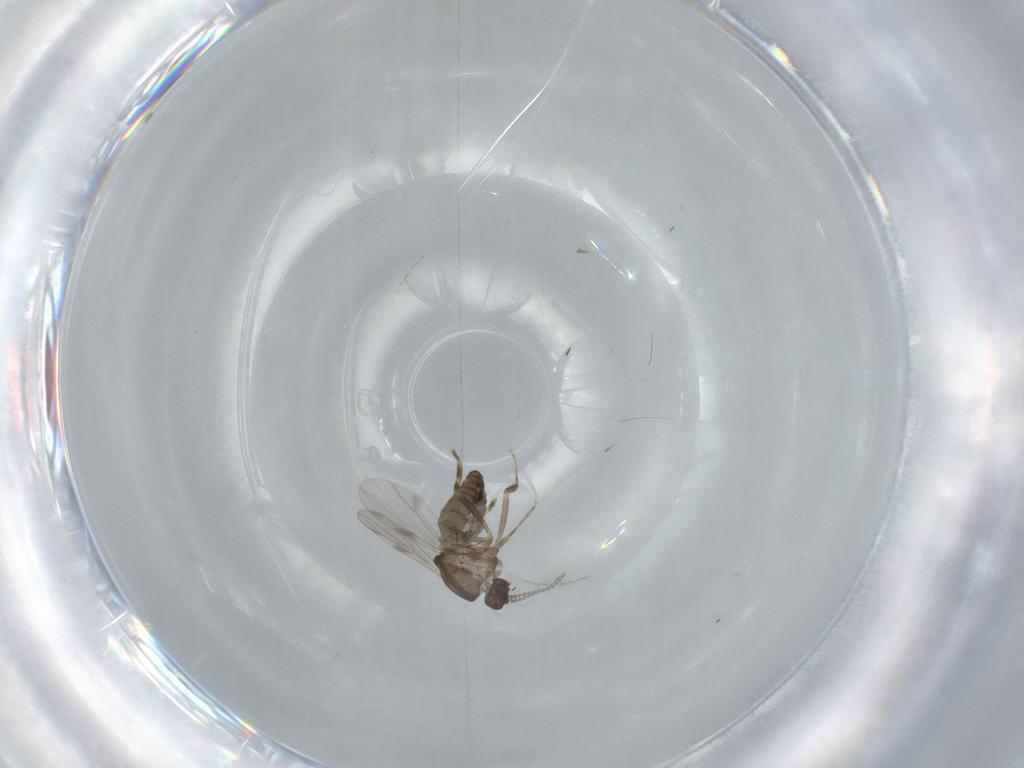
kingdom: Animalia
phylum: Arthropoda
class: Insecta
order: Diptera
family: Ceratopogonidae
